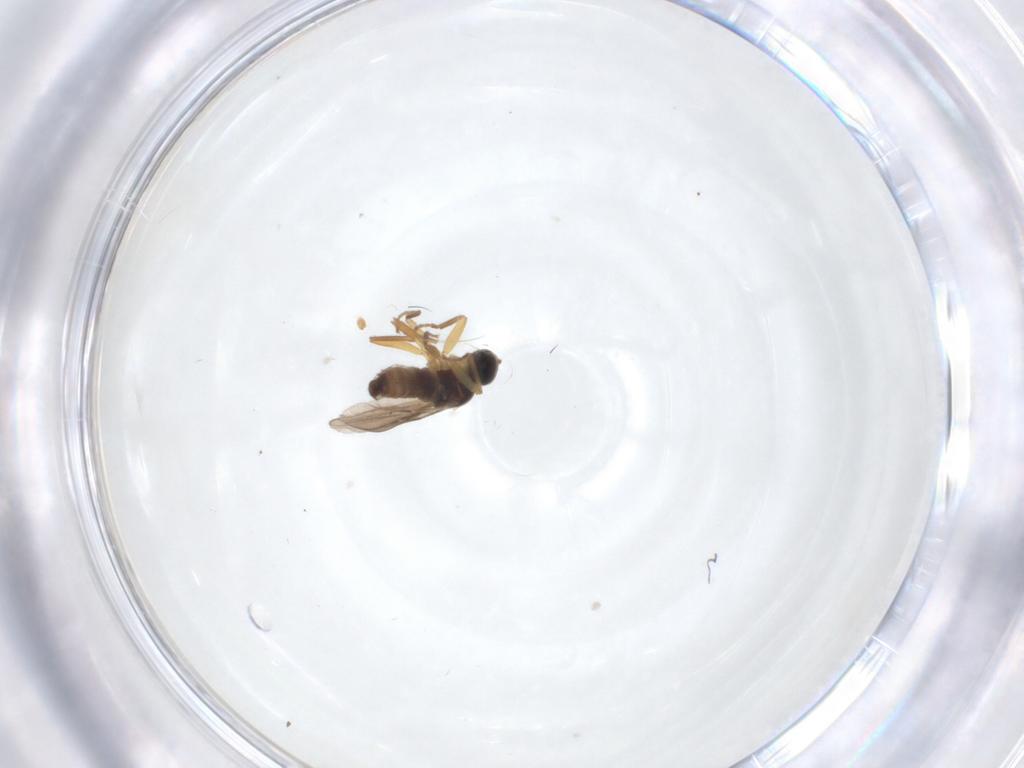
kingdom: Animalia
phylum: Arthropoda
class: Insecta
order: Diptera
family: Hybotidae
